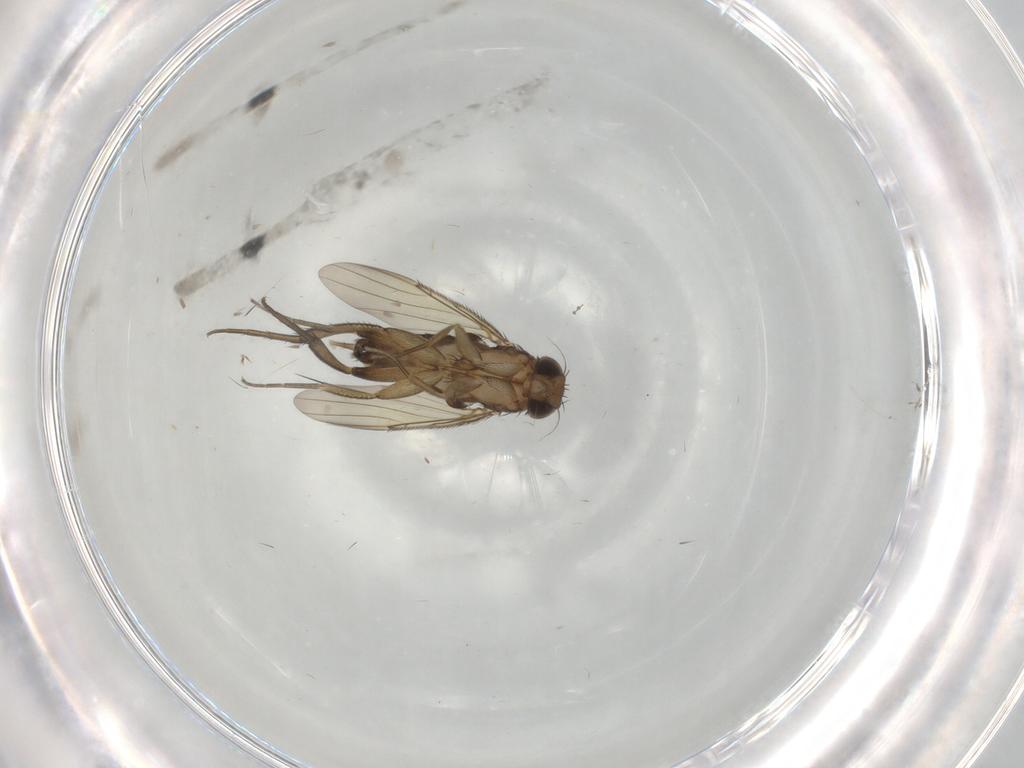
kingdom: Animalia
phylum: Arthropoda
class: Insecta
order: Diptera
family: Phoridae
